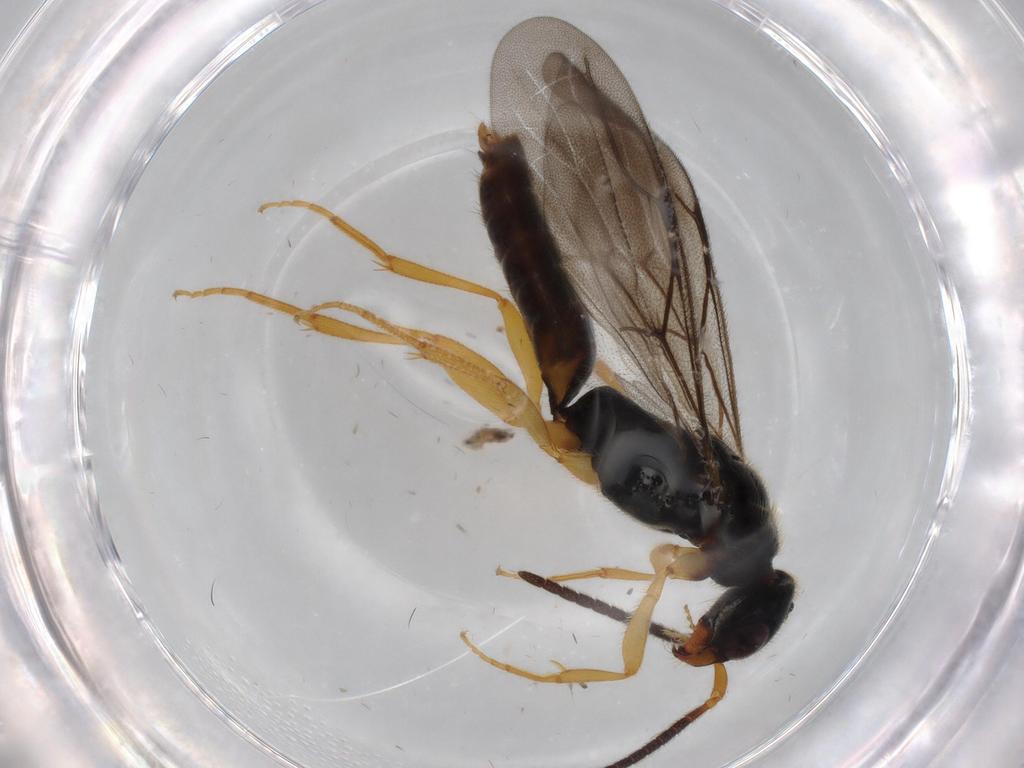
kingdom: Animalia
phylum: Arthropoda
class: Insecta
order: Hymenoptera
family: Bethylidae
